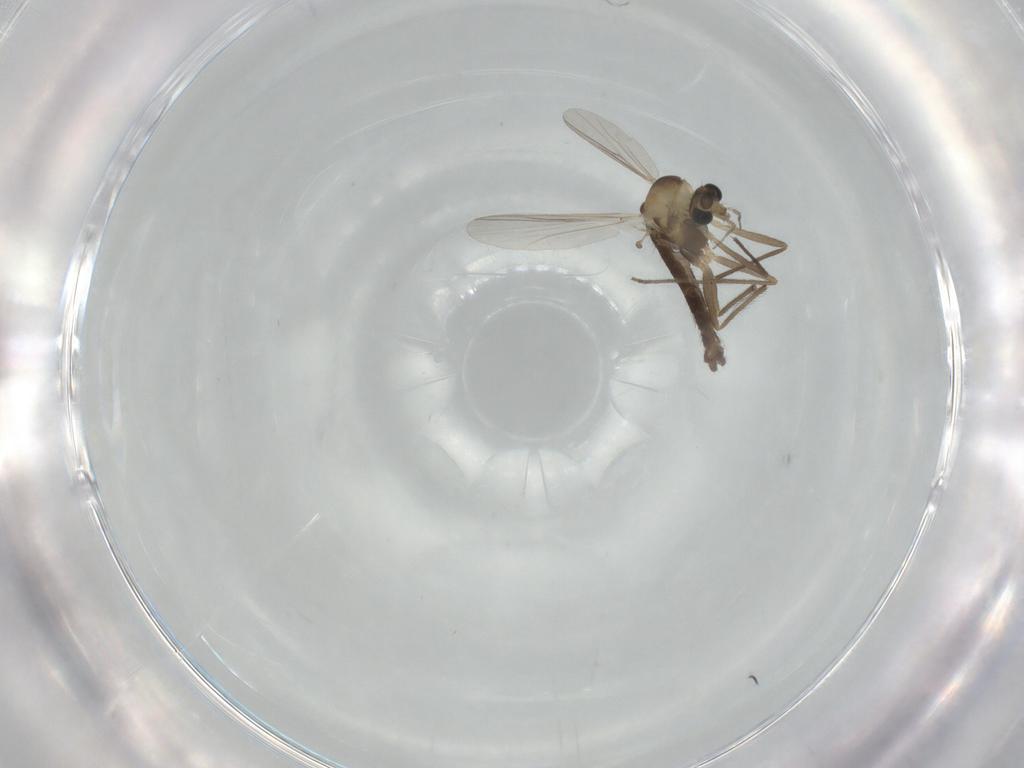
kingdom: Animalia
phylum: Arthropoda
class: Insecta
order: Diptera
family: Chironomidae
